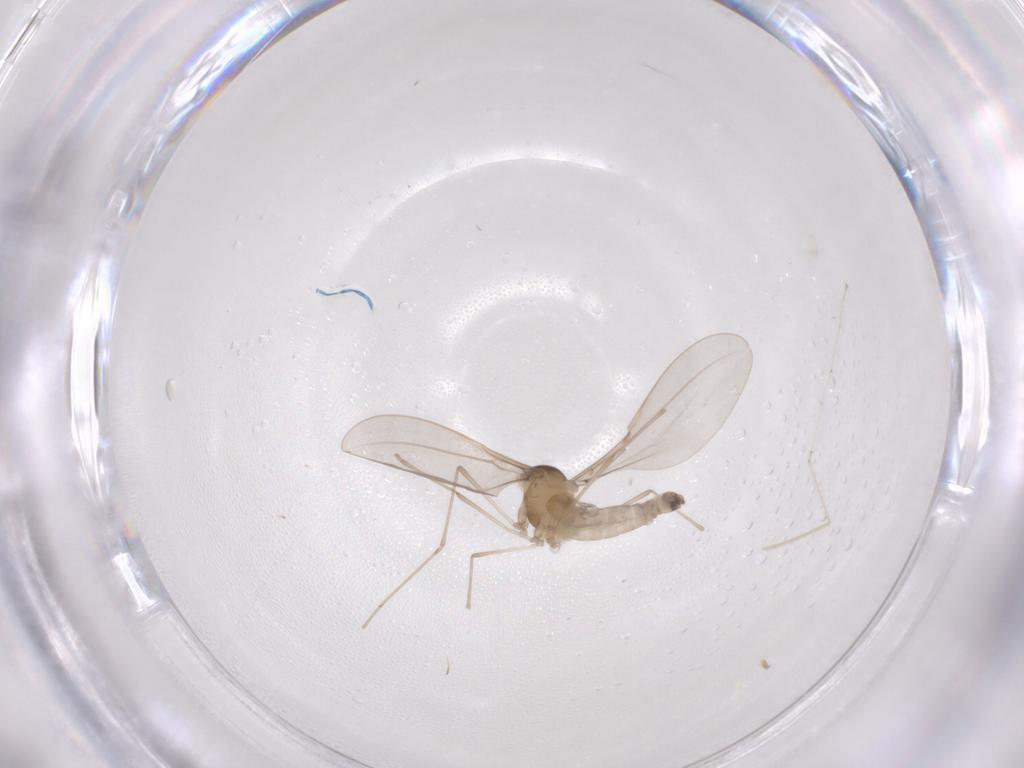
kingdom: Animalia
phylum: Arthropoda
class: Insecta
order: Diptera
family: Cecidomyiidae
